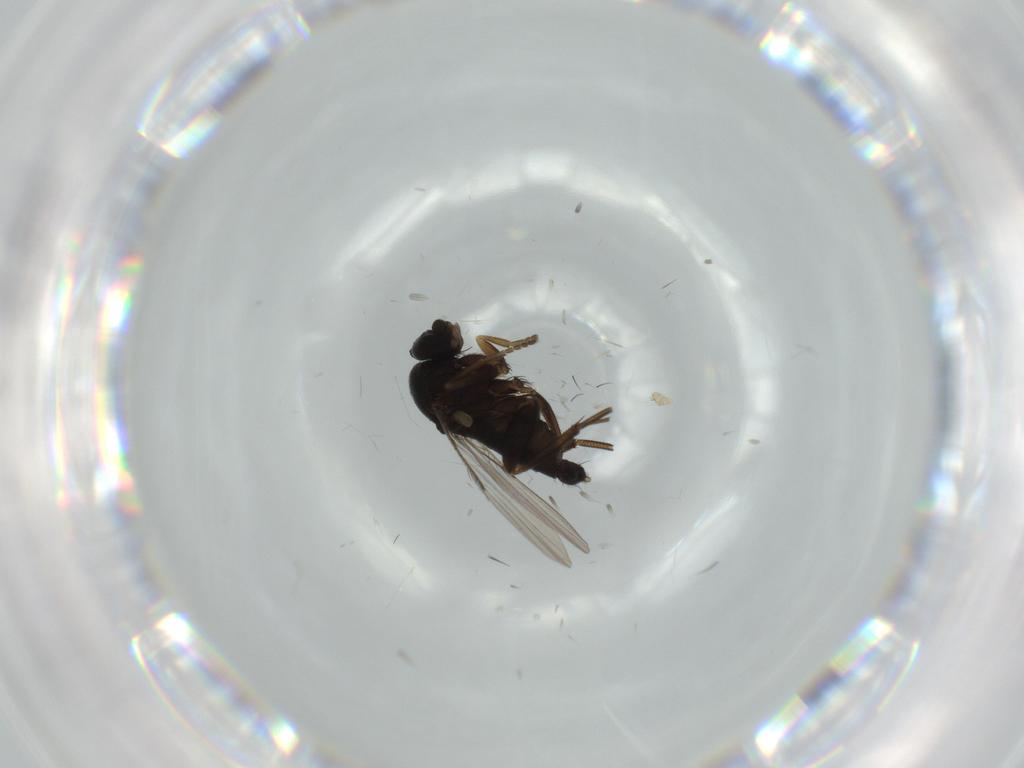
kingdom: Animalia
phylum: Arthropoda
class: Insecta
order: Diptera
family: Phoridae
